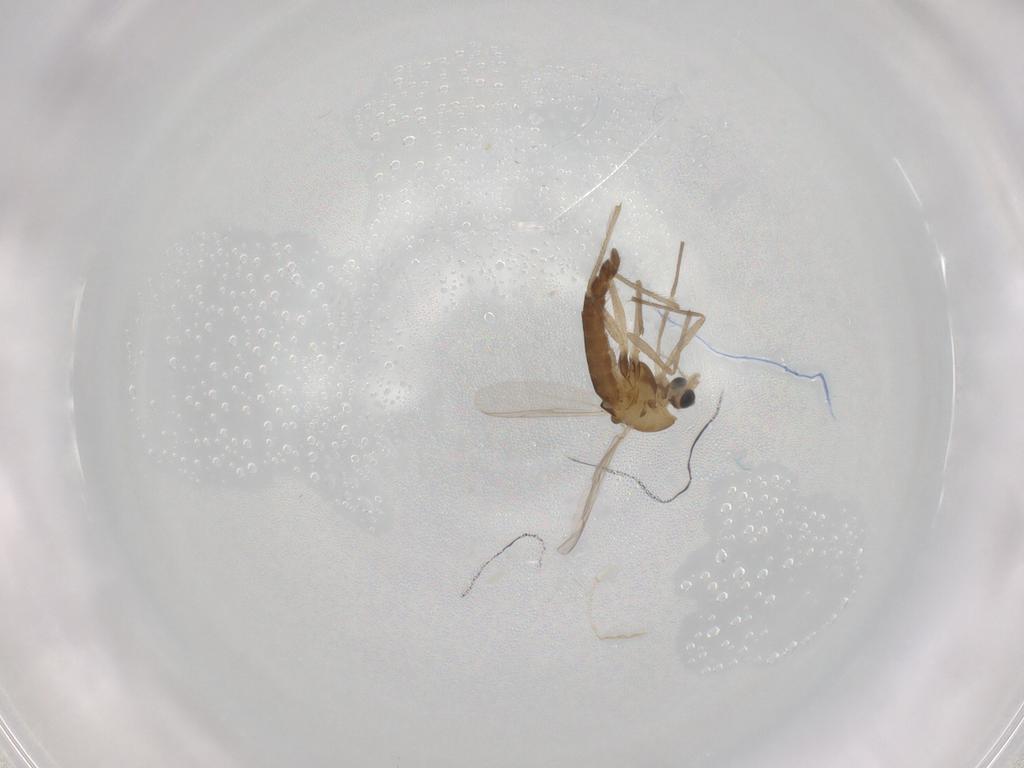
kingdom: Animalia
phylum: Arthropoda
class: Insecta
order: Diptera
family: Chironomidae
